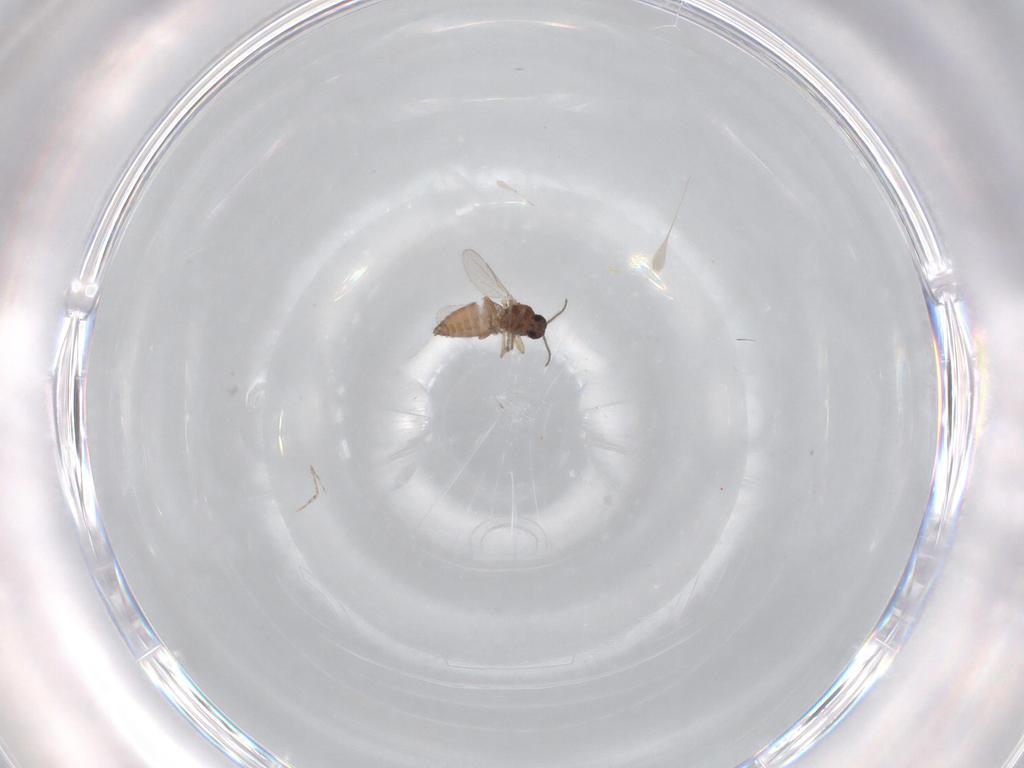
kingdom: Animalia
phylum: Arthropoda
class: Insecta
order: Diptera
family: Ceratopogonidae
